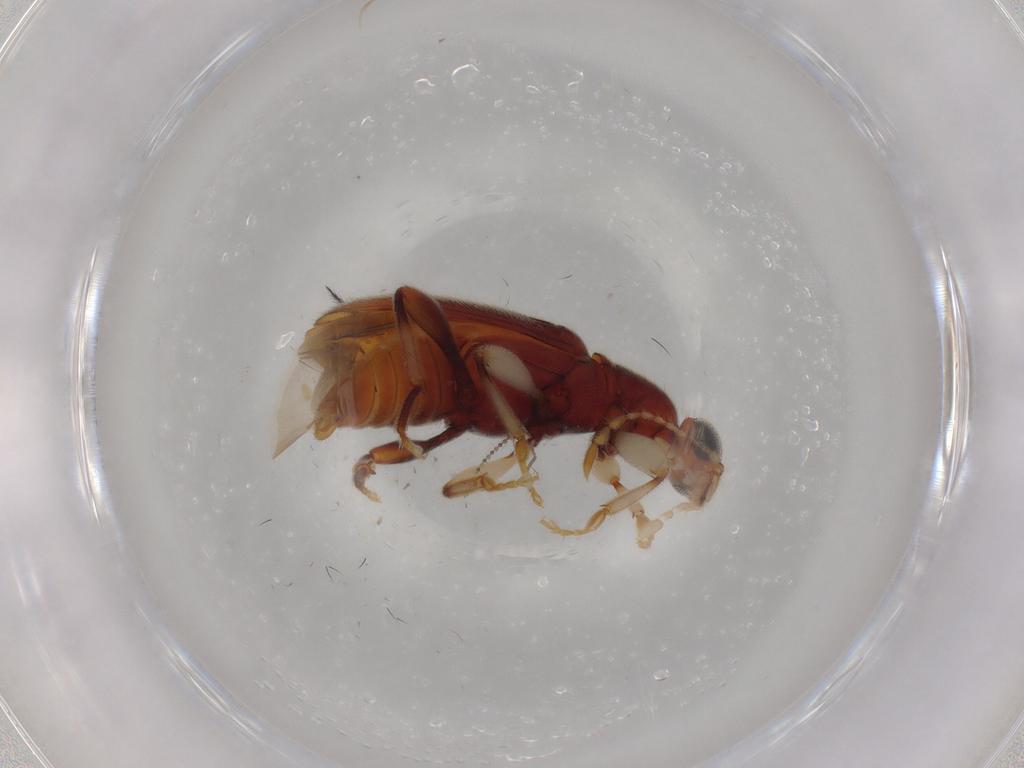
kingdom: Animalia
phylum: Arthropoda
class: Insecta
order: Coleoptera
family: Anthicidae
